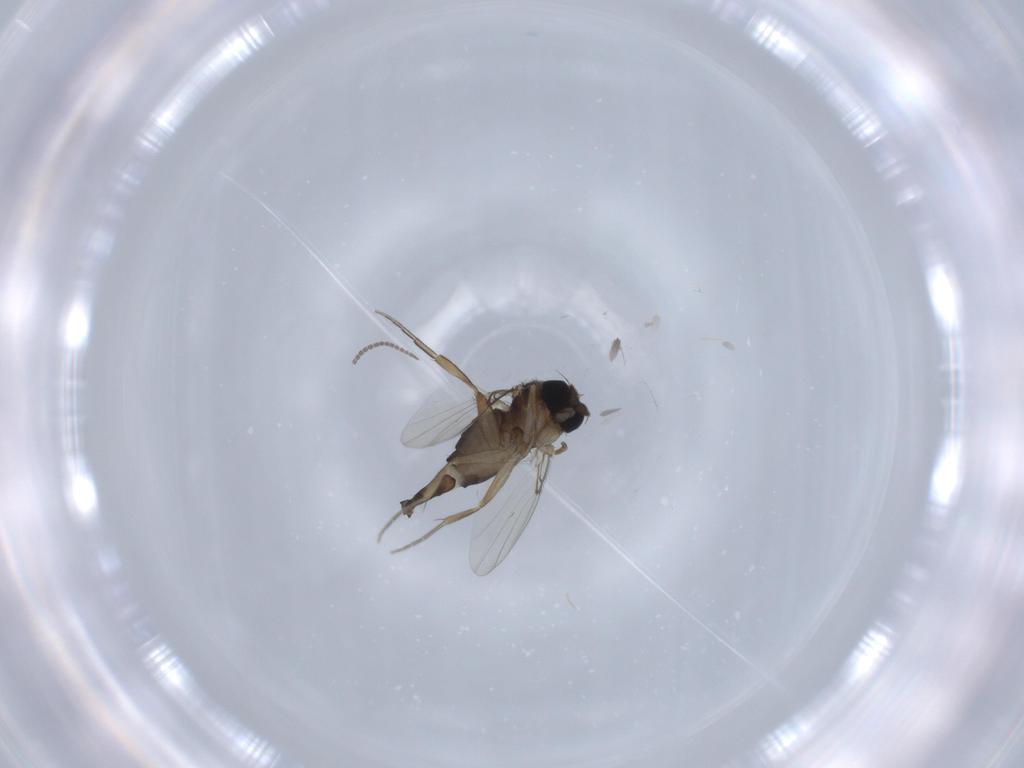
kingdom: Animalia
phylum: Arthropoda
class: Insecta
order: Diptera
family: Phoridae
